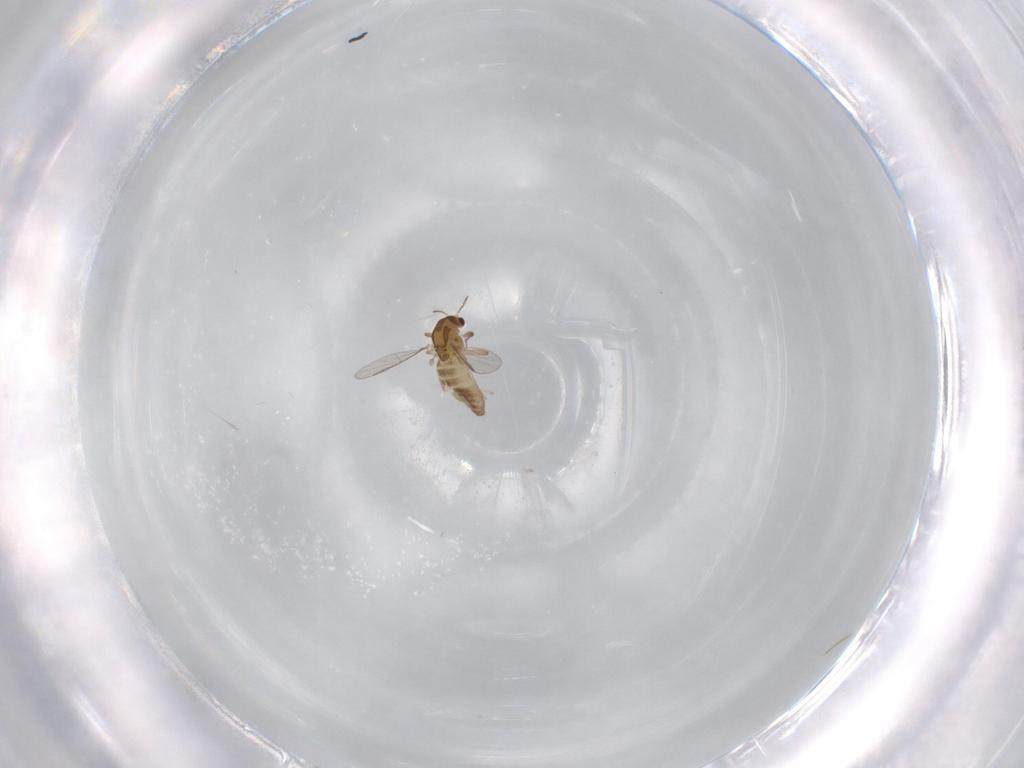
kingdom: Animalia
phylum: Arthropoda
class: Insecta
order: Diptera
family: Chironomidae
